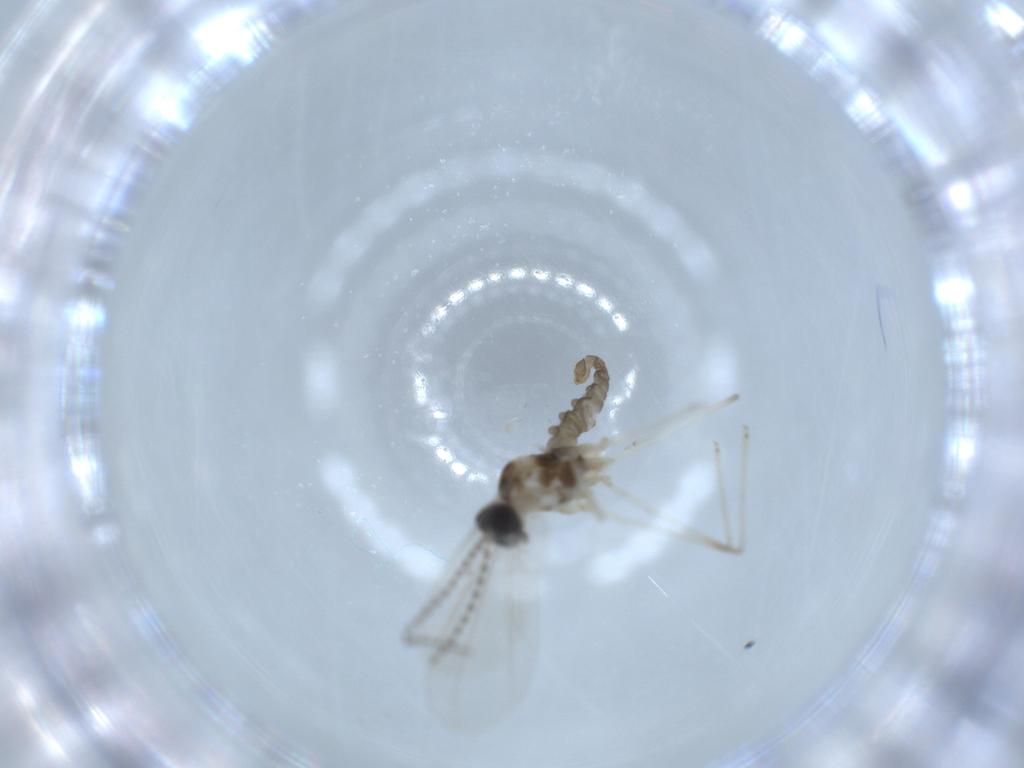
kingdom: Animalia
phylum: Arthropoda
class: Insecta
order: Diptera
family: Cecidomyiidae
